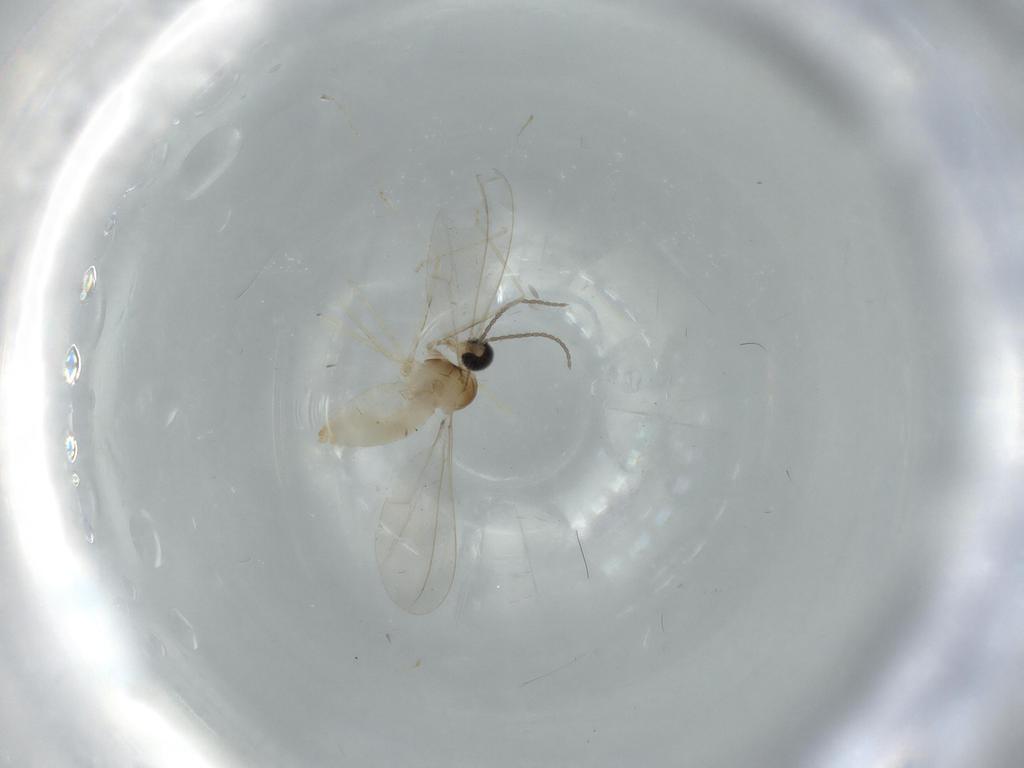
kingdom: Animalia
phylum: Arthropoda
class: Insecta
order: Diptera
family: Cecidomyiidae
